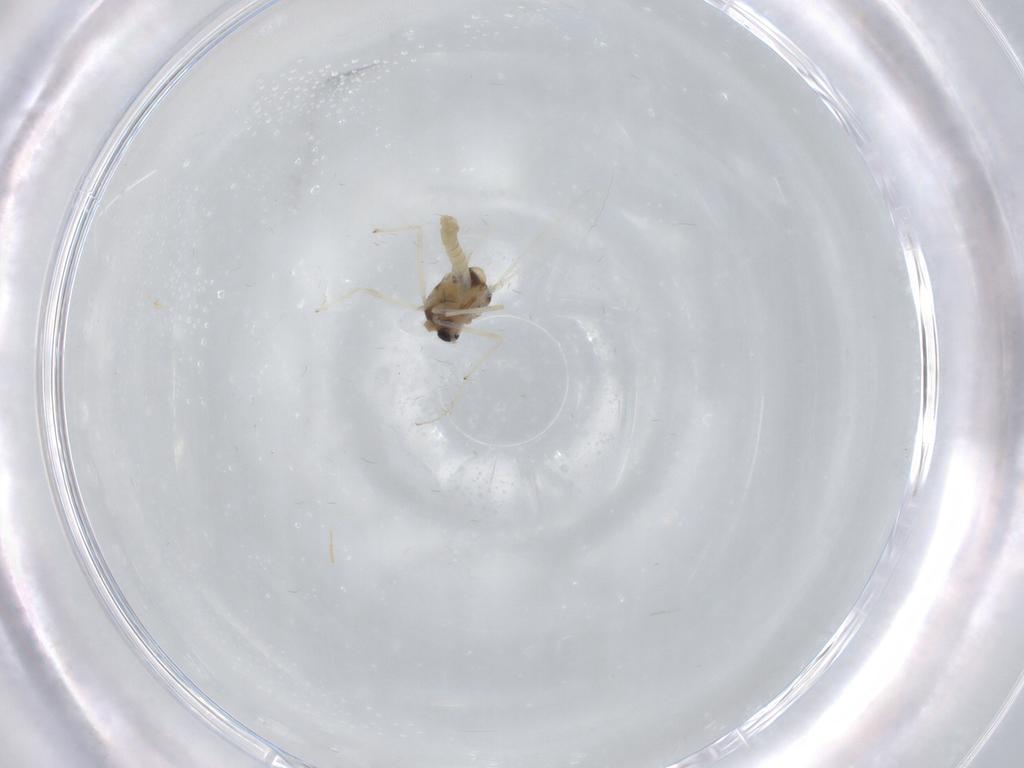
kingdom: Animalia
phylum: Arthropoda
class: Insecta
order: Diptera
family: Chironomidae
